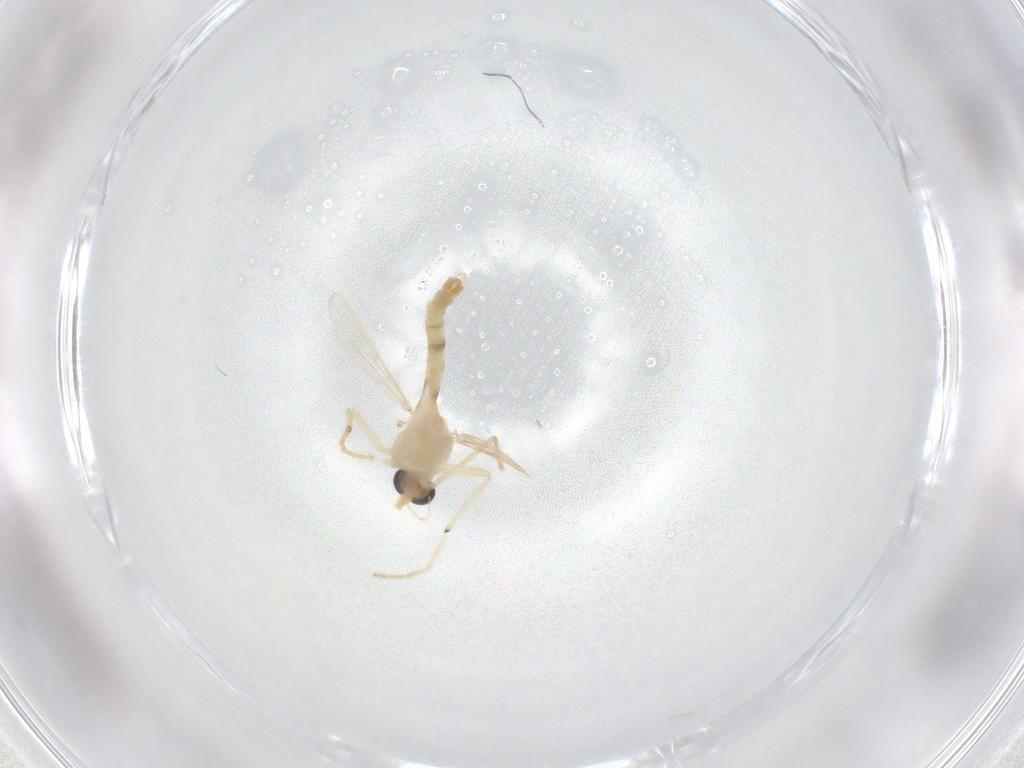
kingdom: Animalia
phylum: Arthropoda
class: Insecta
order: Diptera
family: Chironomidae
